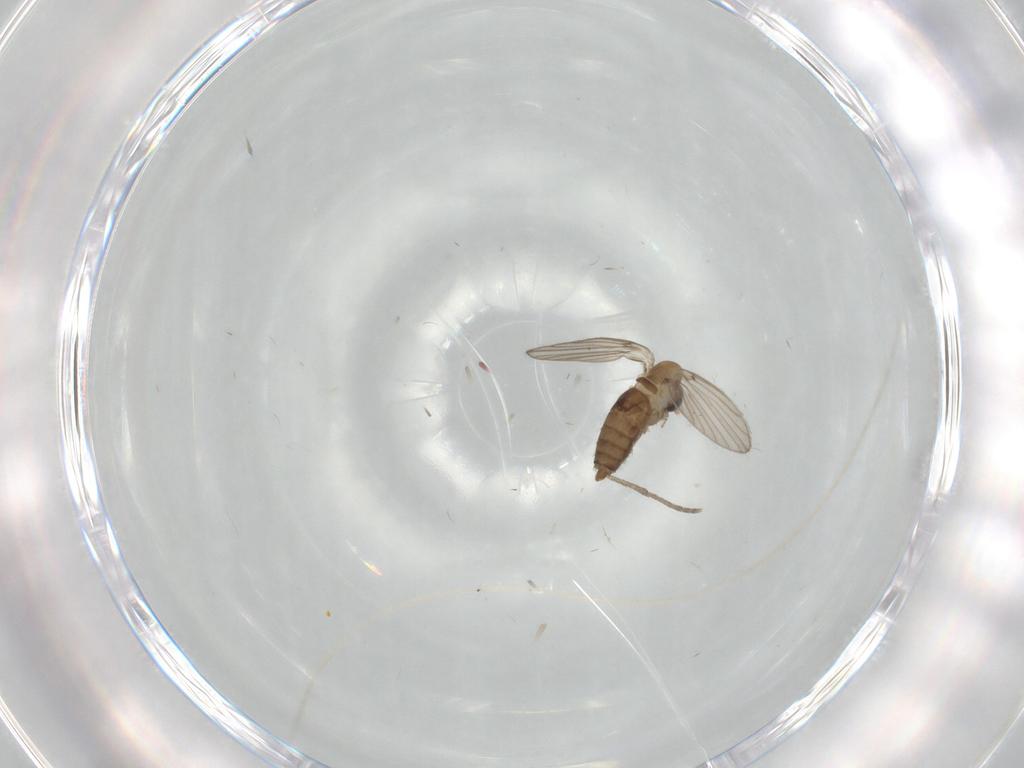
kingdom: Animalia
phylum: Arthropoda
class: Insecta
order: Diptera
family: Psychodidae
